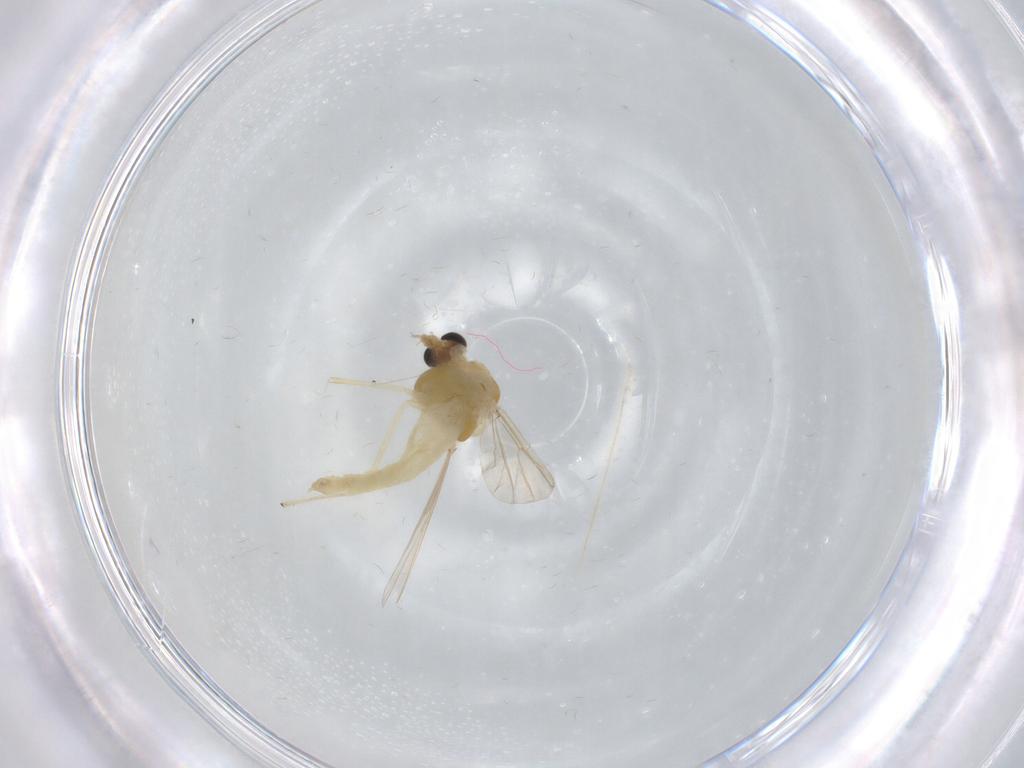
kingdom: Animalia
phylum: Arthropoda
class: Insecta
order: Diptera
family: Chironomidae
